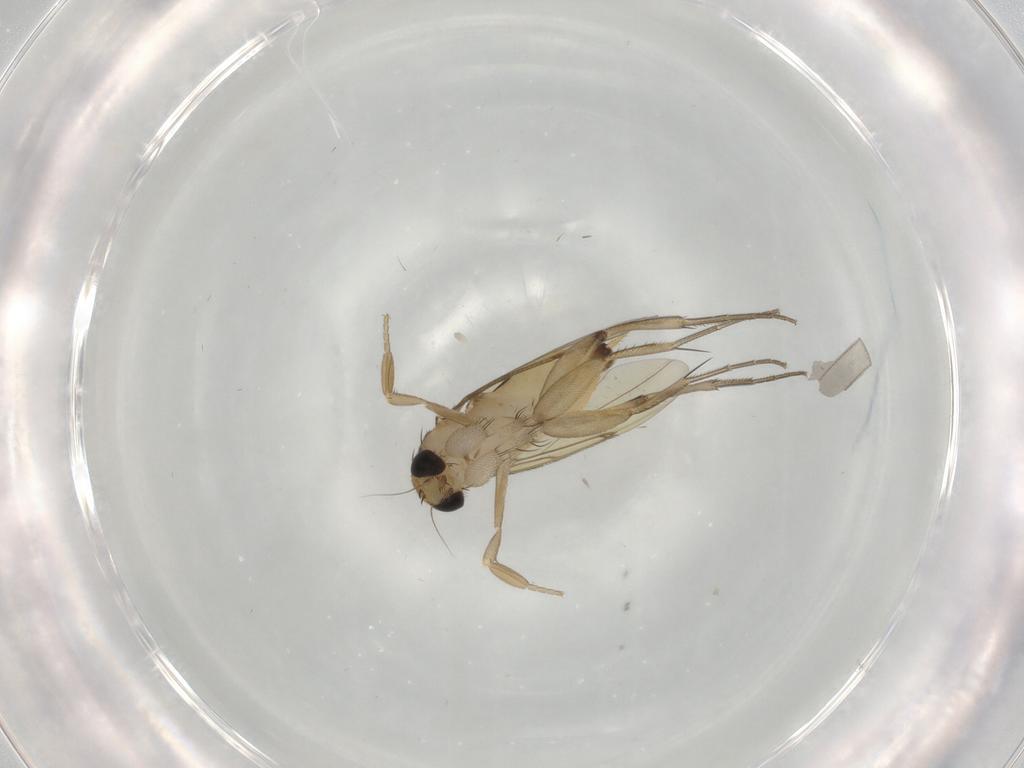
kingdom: Animalia
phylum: Arthropoda
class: Insecta
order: Diptera
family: Phoridae
